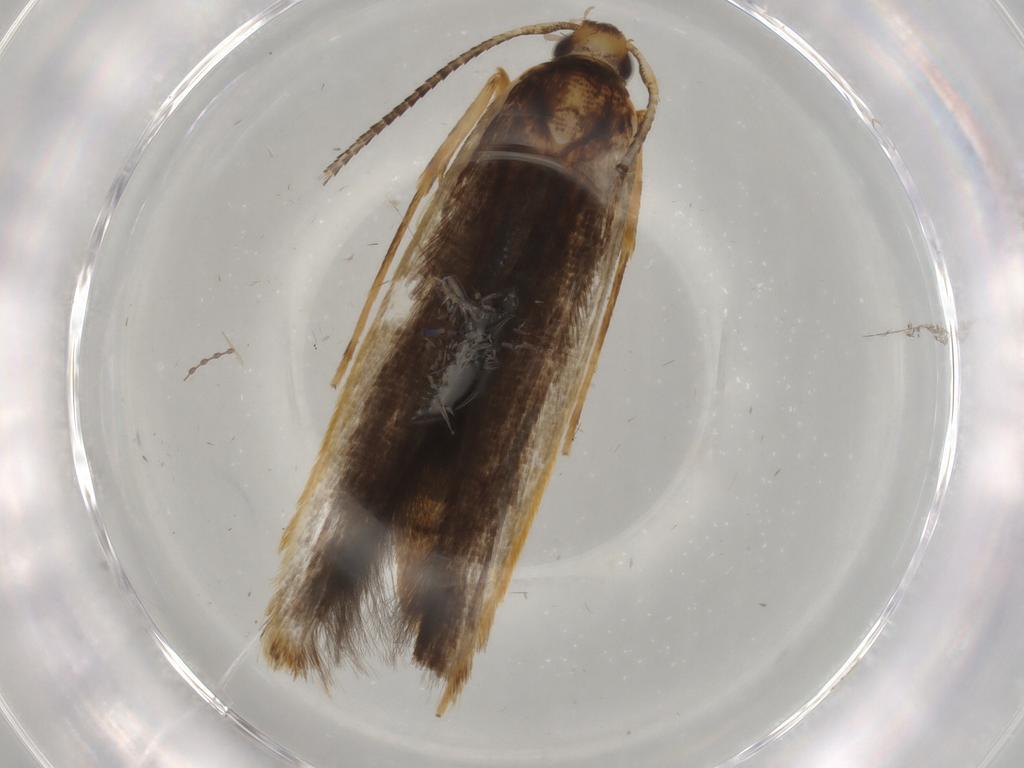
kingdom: Animalia
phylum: Arthropoda
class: Insecta
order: Lepidoptera
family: Pterolonchidae
